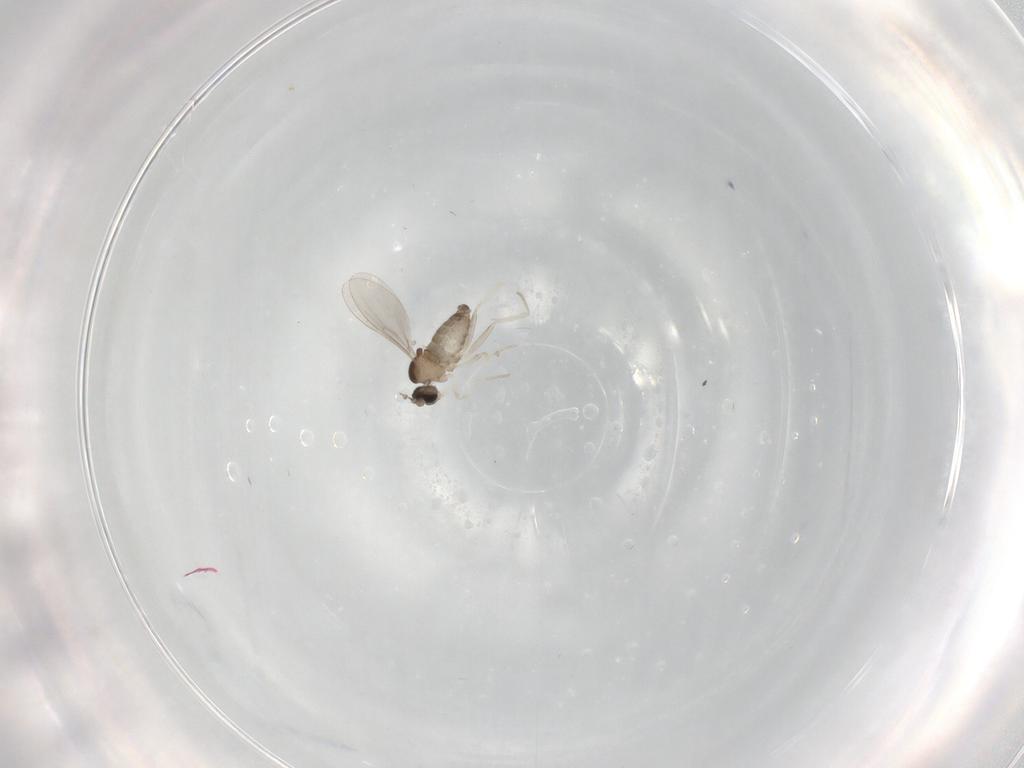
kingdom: Animalia
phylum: Arthropoda
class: Insecta
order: Diptera
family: Cecidomyiidae
